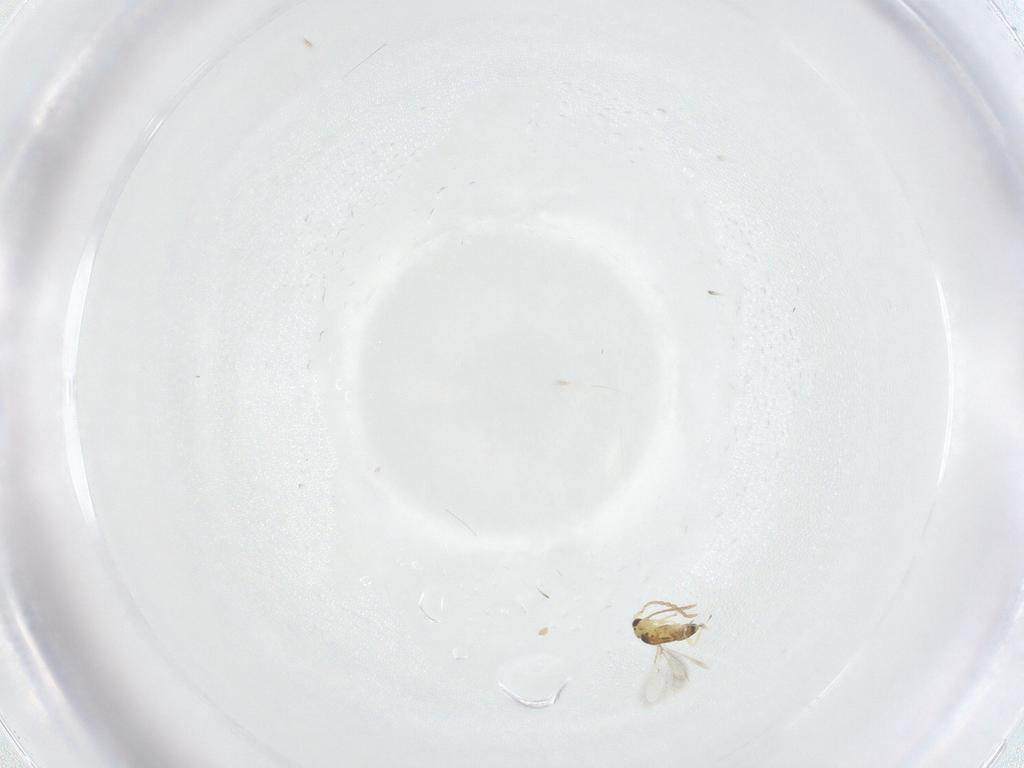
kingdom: Animalia
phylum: Arthropoda
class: Insecta
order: Hymenoptera
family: Mymaridae
